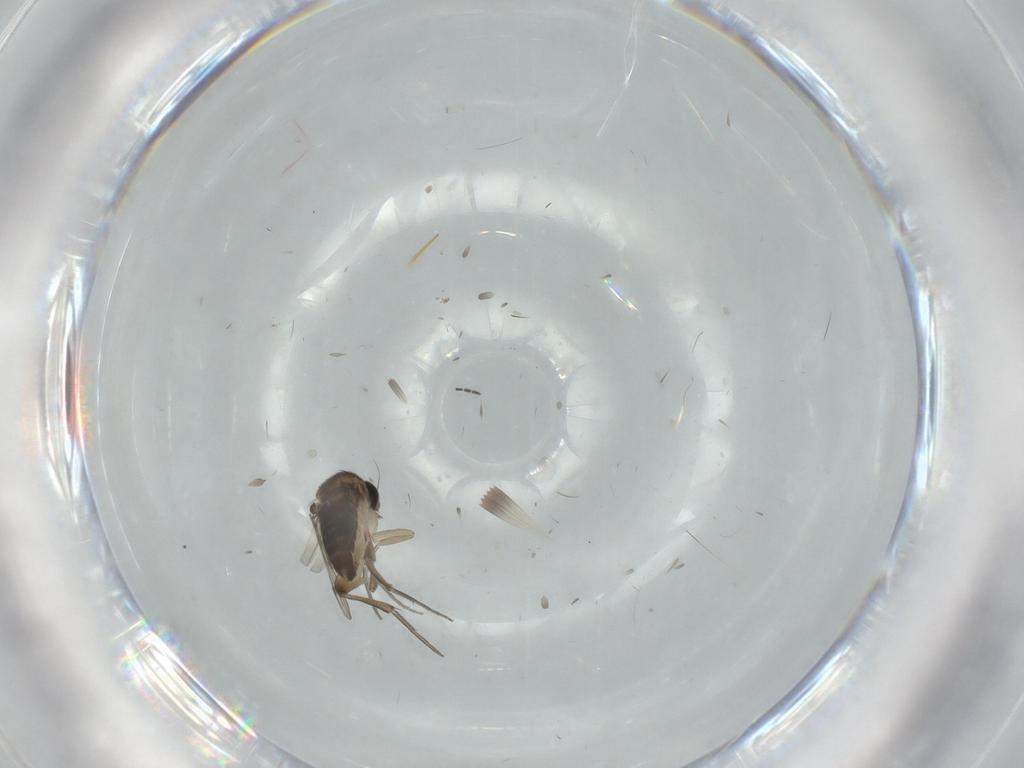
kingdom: Animalia
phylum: Arthropoda
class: Insecta
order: Diptera
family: Phoridae
